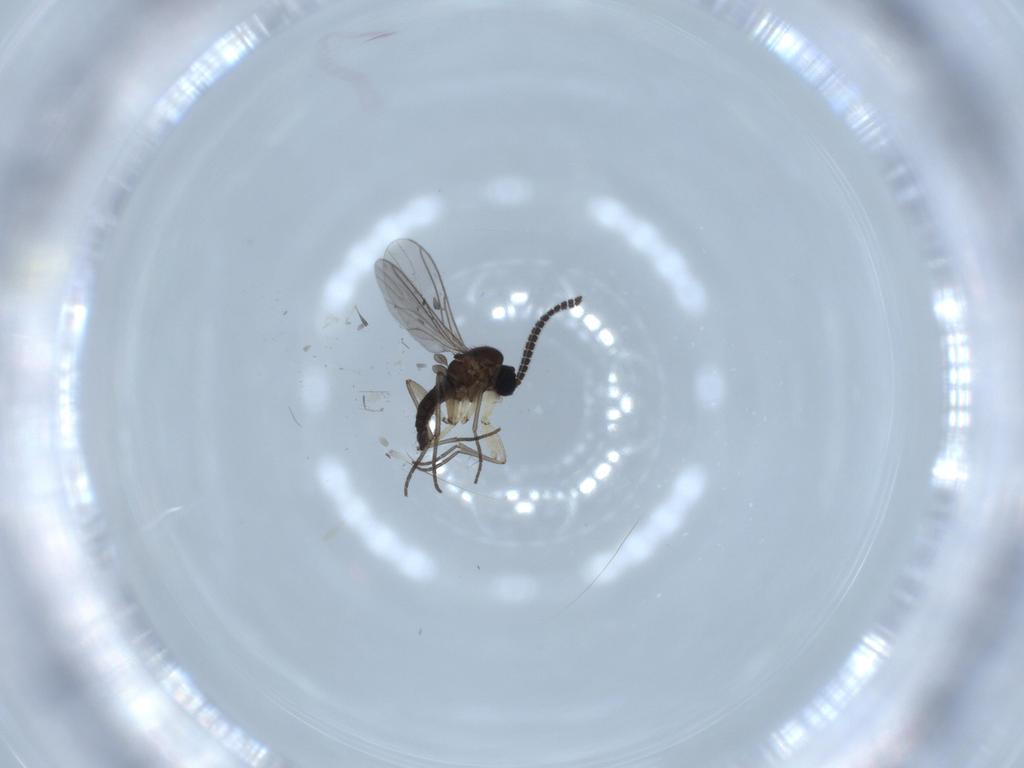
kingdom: Animalia
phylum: Arthropoda
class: Insecta
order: Diptera
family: Sciaridae
